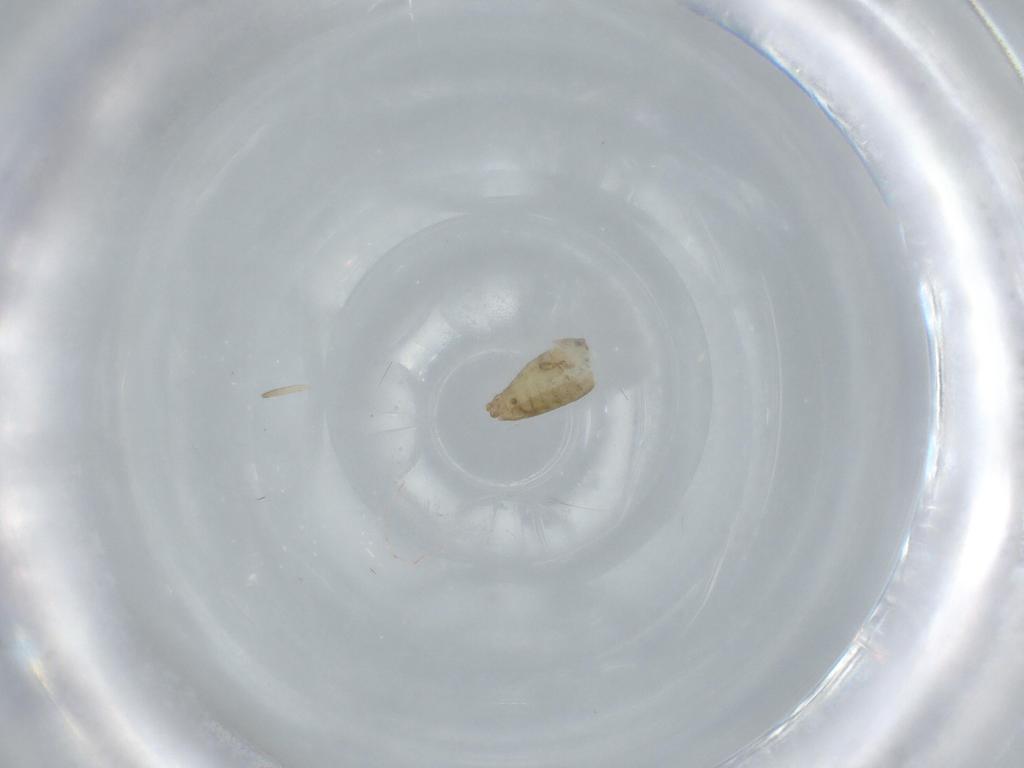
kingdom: Animalia
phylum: Arthropoda
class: Insecta
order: Diptera
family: Chironomidae
